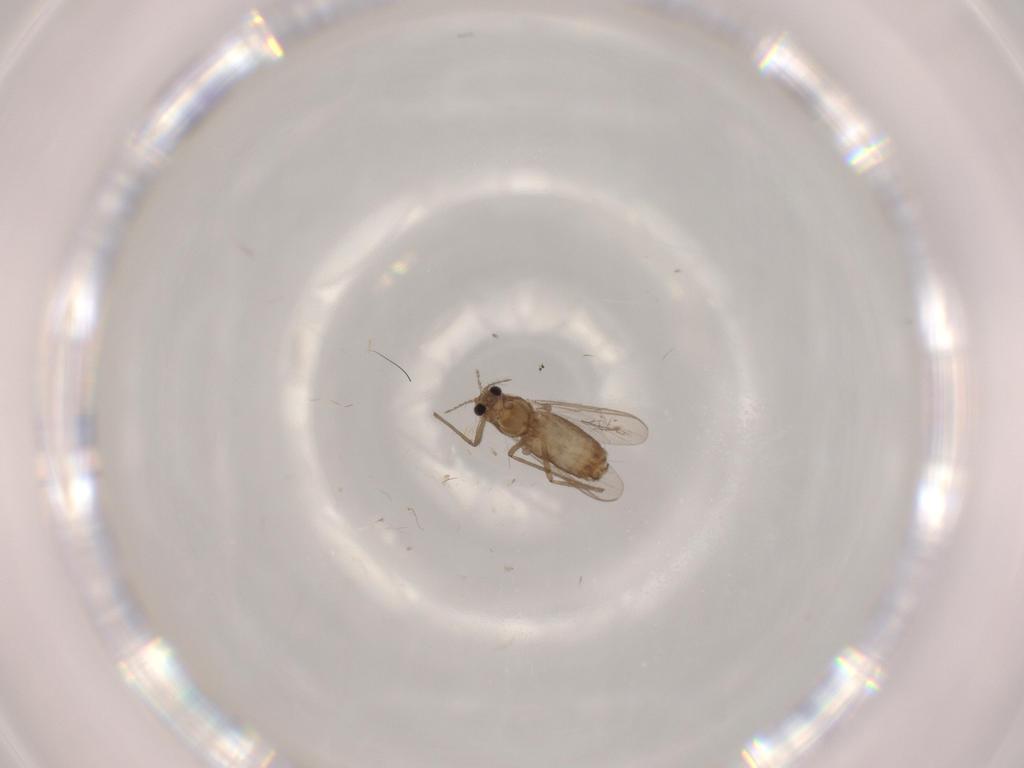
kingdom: Animalia
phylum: Arthropoda
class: Insecta
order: Diptera
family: Chironomidae
